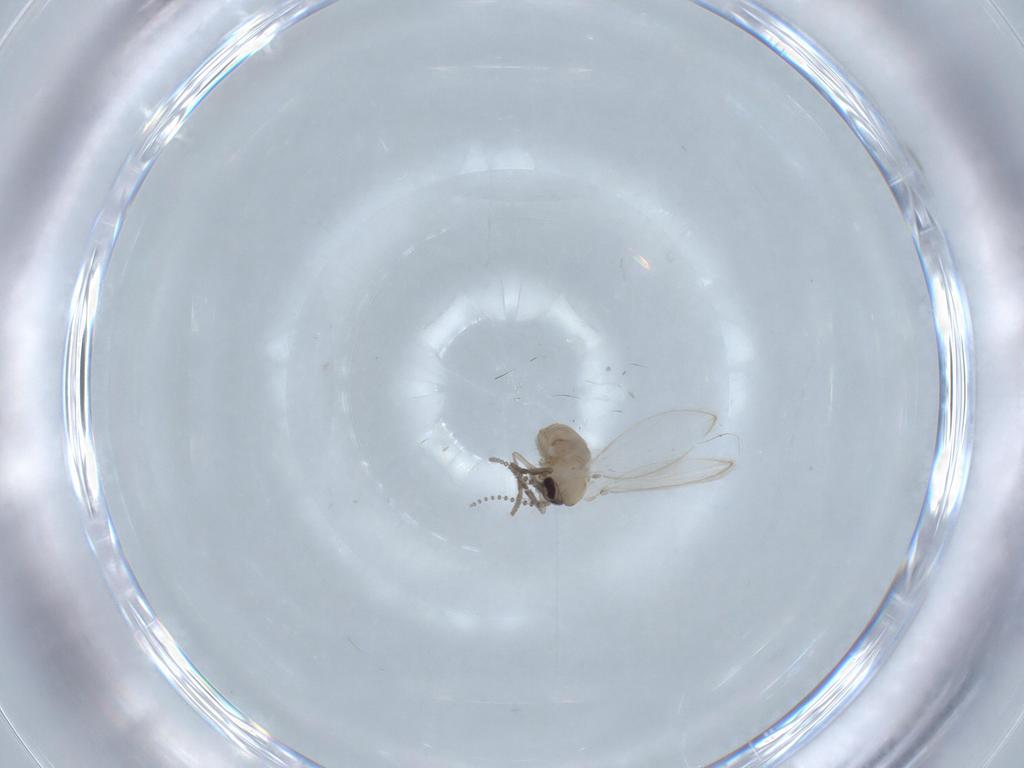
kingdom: Animalia
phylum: Arthropoda
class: Insecta
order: Diptera
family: Psychodidae
